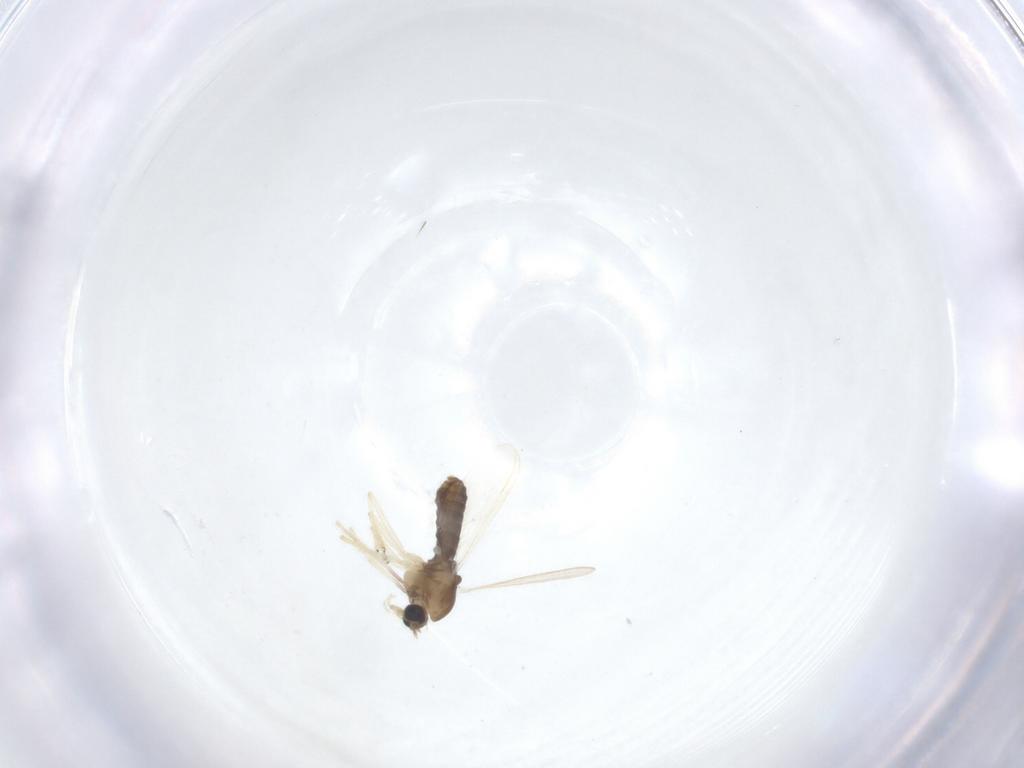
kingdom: Animalia
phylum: Arthropoda
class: Insecta
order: Diptera
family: Chironomidae
